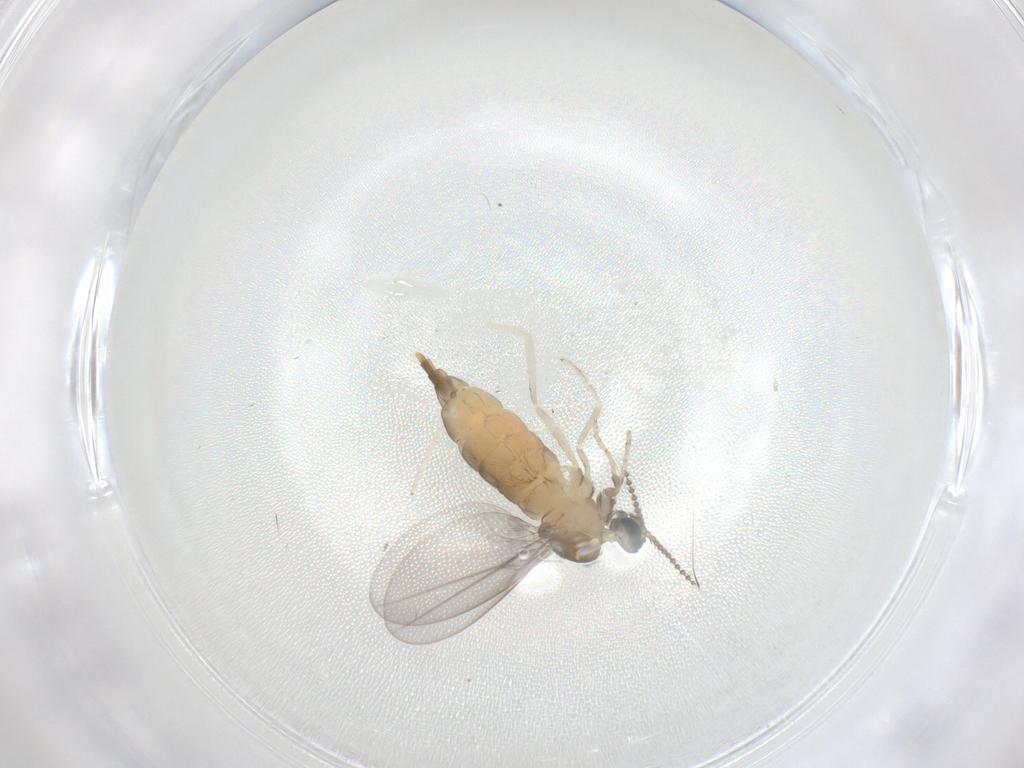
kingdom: Animalia
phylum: Arthropoda
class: Insecta
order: Diptera
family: Cecidomyiidae
